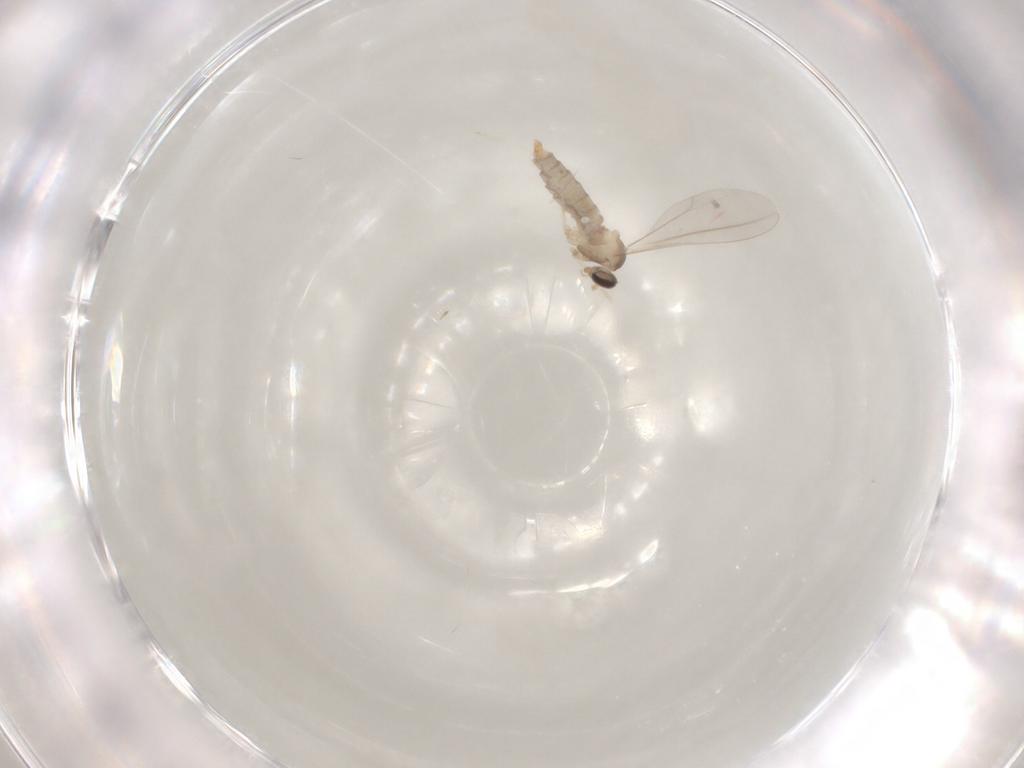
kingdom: Animalia
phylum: Arthropoda
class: Insecta
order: Diptera
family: Cecidomyiidae
